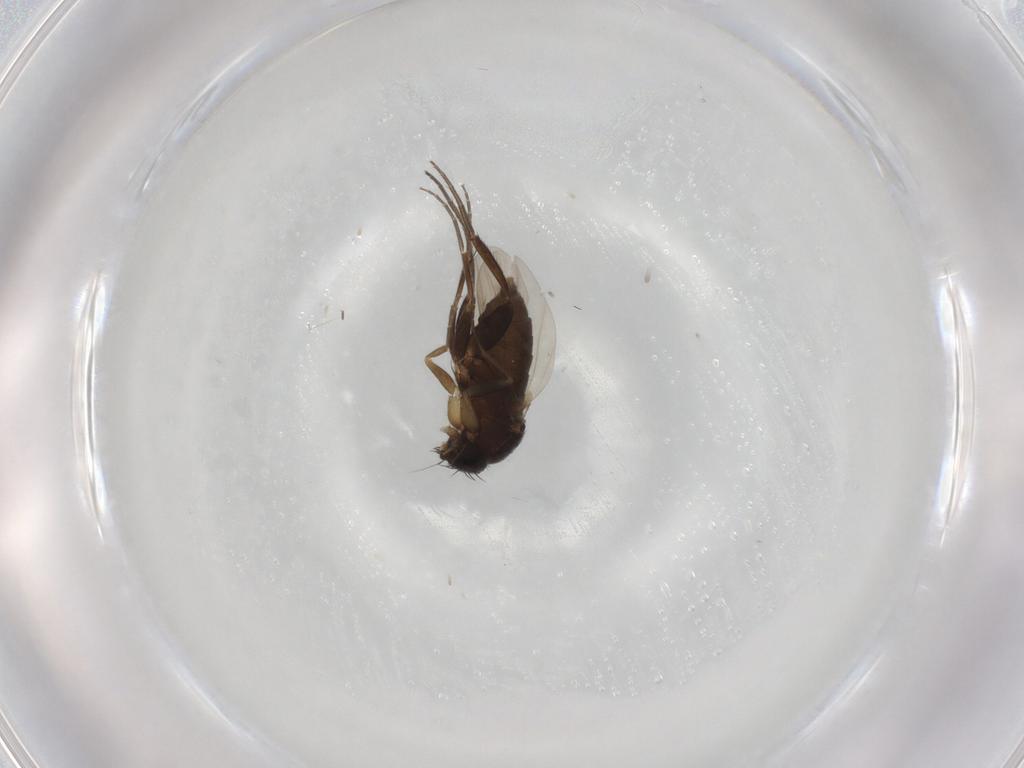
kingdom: Animalia
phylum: Arthropoda
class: Insecta
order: Diptera
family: Phoridae
